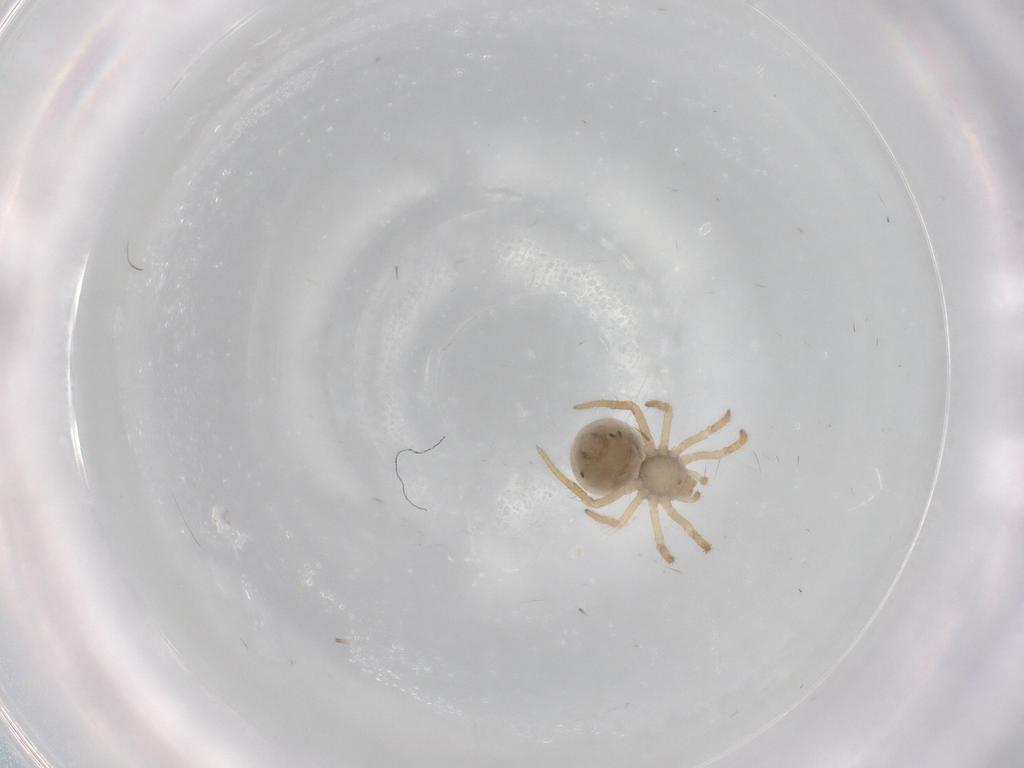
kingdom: Animalia
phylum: Arthropoda
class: Arachnida
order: Araneae
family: Theridiidae
